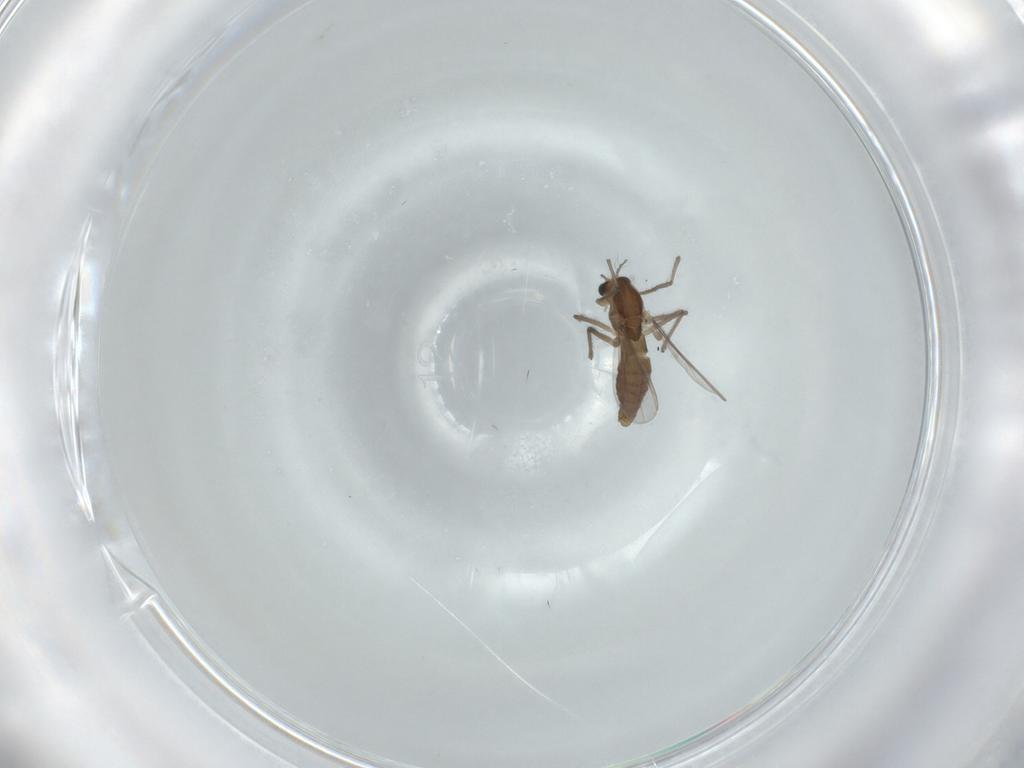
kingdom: Animalia
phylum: Arthropoda
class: Insecta
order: Diptera
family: Chironomidae
